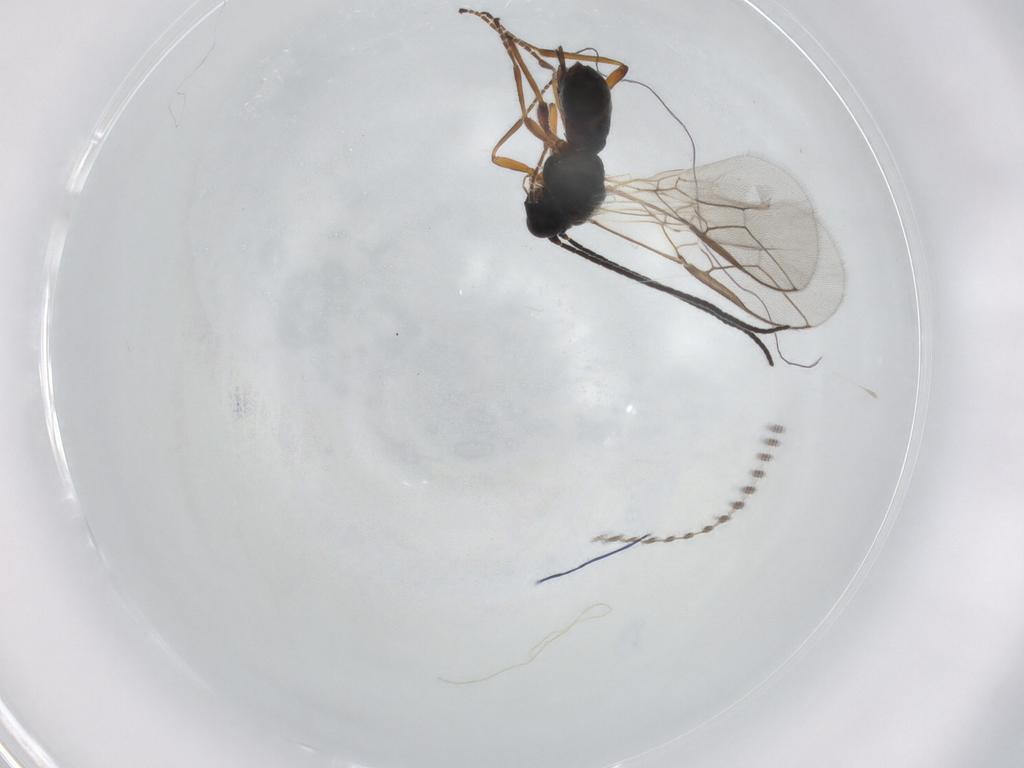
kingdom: Animalia
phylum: Arthropoda
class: Insecta
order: Hymenoptera
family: Braconidae
